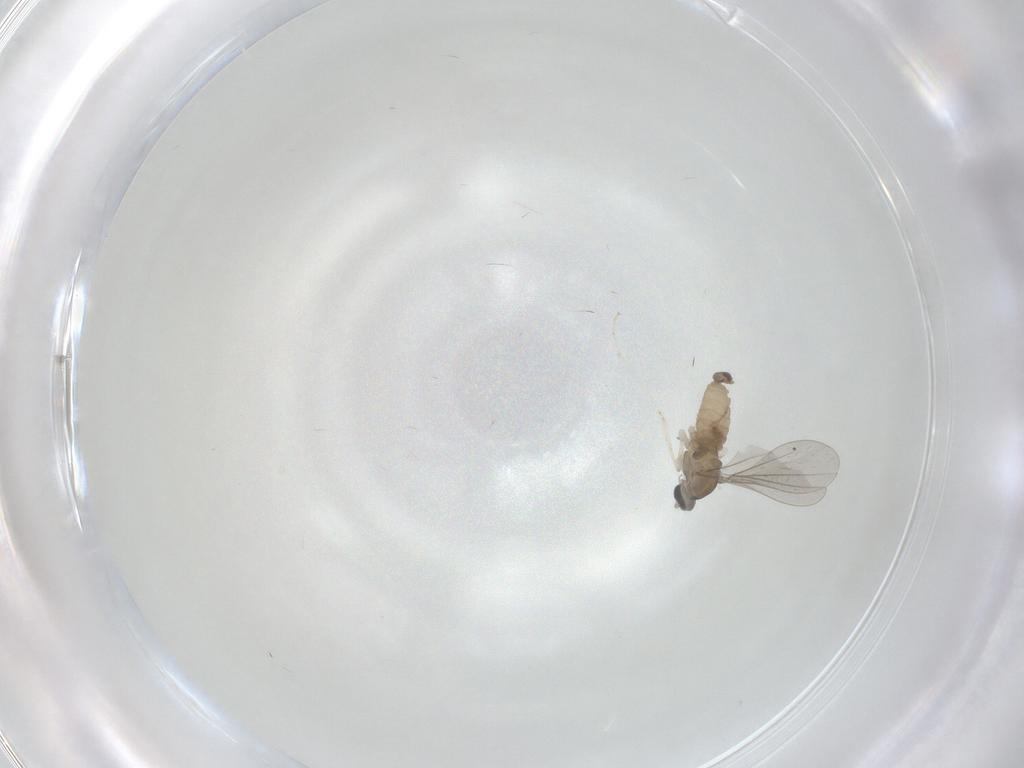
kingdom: Animalia
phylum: Arthropoda
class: Insecta
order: Diptera
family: Cecidomyiidae
